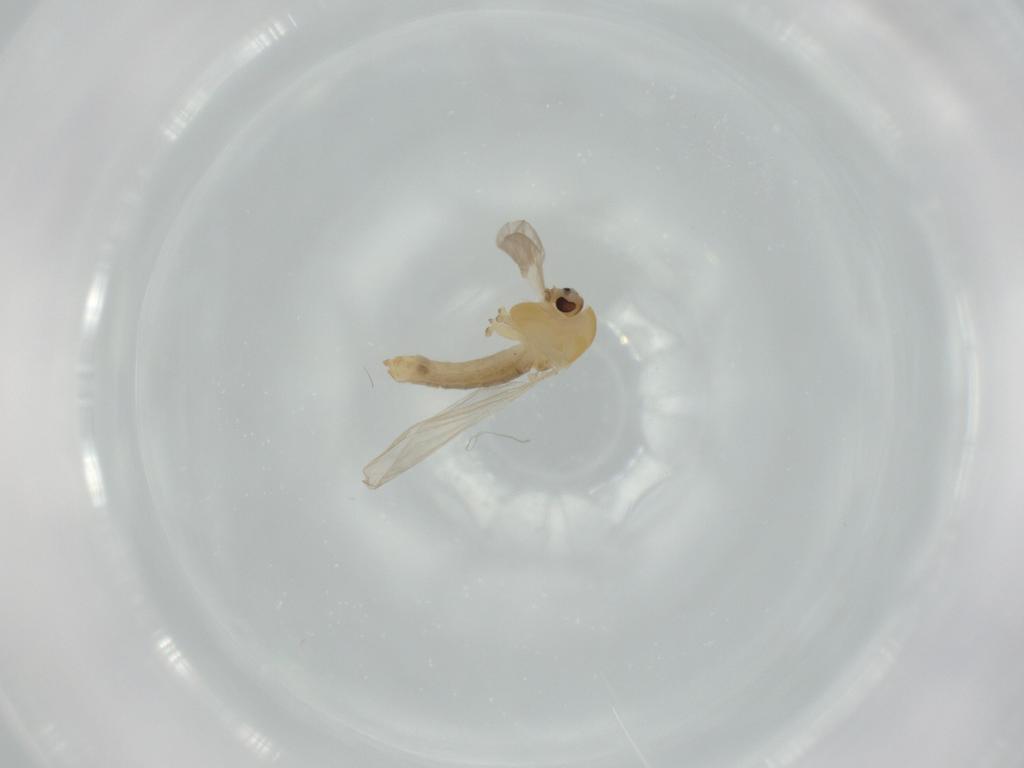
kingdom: Animalia
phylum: Arthropoda
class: Insecta
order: Diptera
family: Chironomidae
